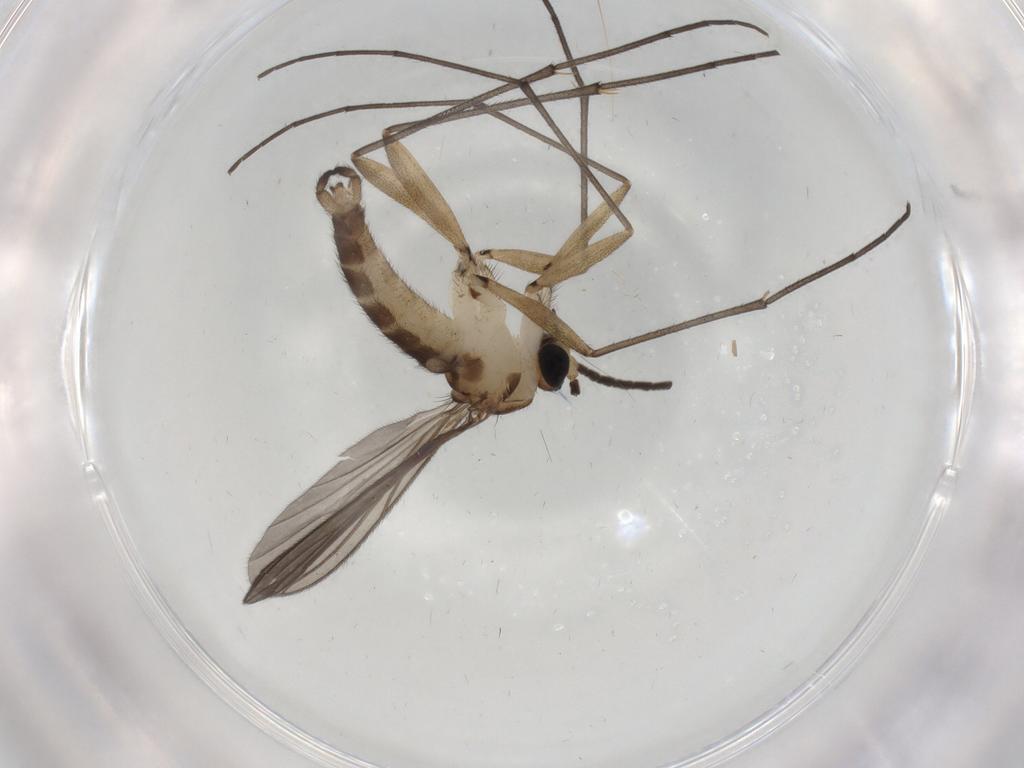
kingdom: Animalia
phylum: Arthropoda
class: Insecta
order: Diptera
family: Sciaridae
